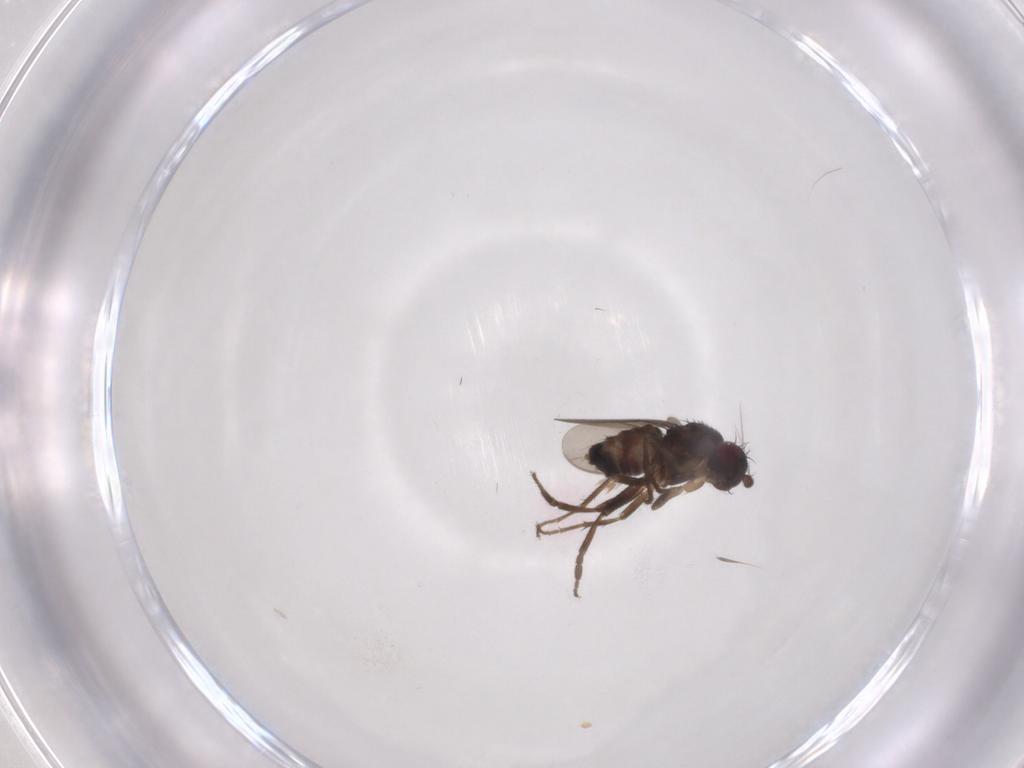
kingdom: Animalia
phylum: Arthropoda
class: Insecta
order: Diptera
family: Sphaeroceridae
